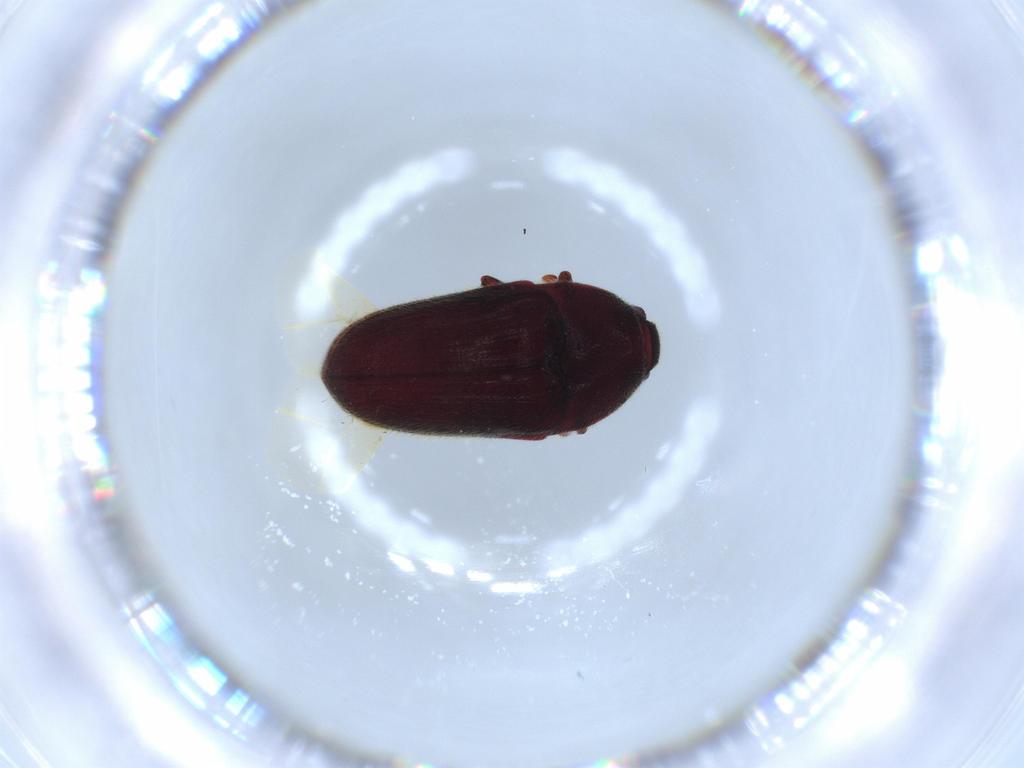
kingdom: Animalia
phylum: Arthropoda
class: Insecta
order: Coleoptera
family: Throscidae
